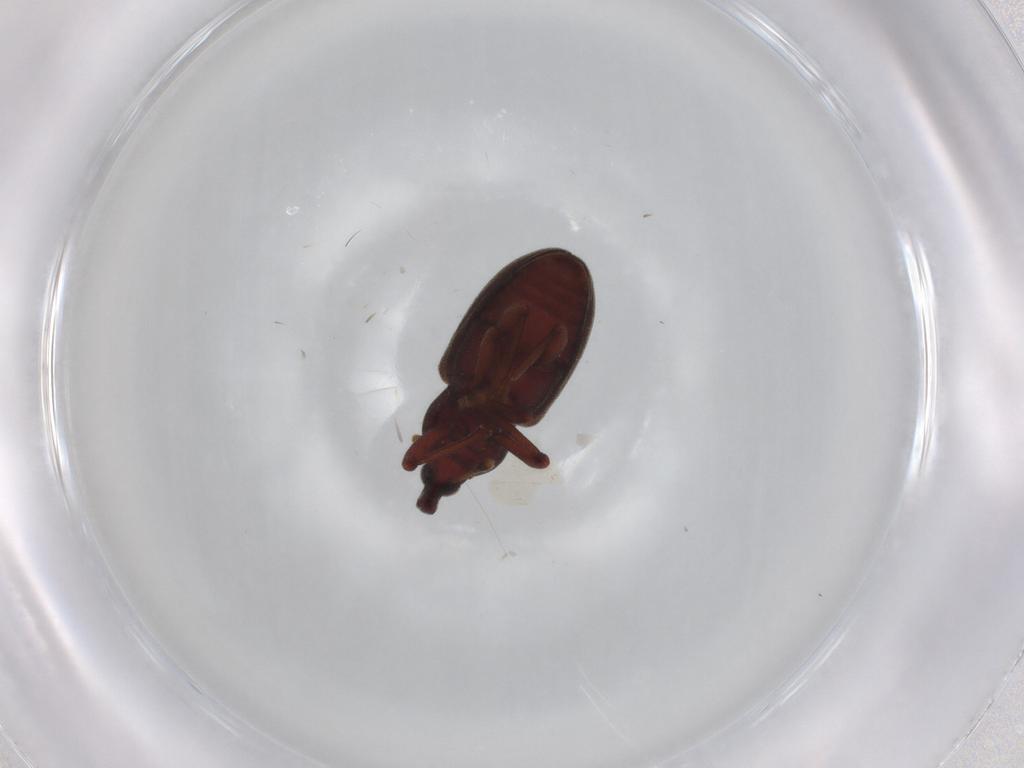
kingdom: Animalia
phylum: Arthropoda
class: Insecta
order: Coleoptera
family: Curculionidae
